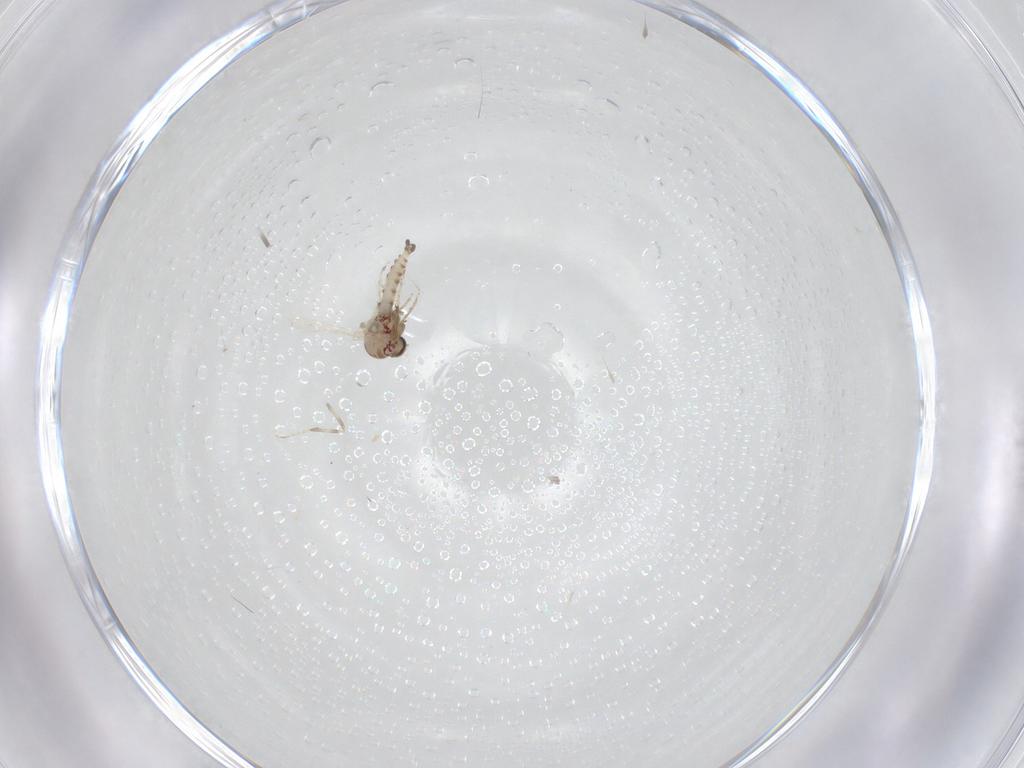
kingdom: Animalia
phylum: Arthropoda
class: Insecta
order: Diptera
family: Ceratopogonidae
